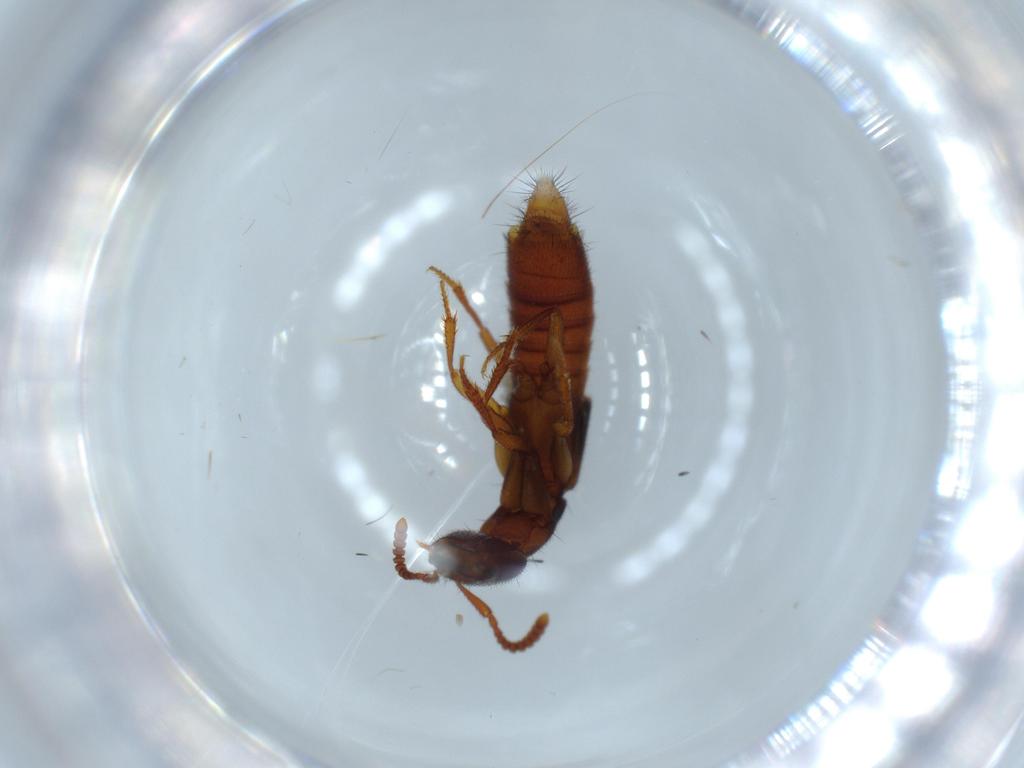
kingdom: Animalia
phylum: Arthropoda
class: Insecta
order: Coleoptera
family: Staphylinidae
